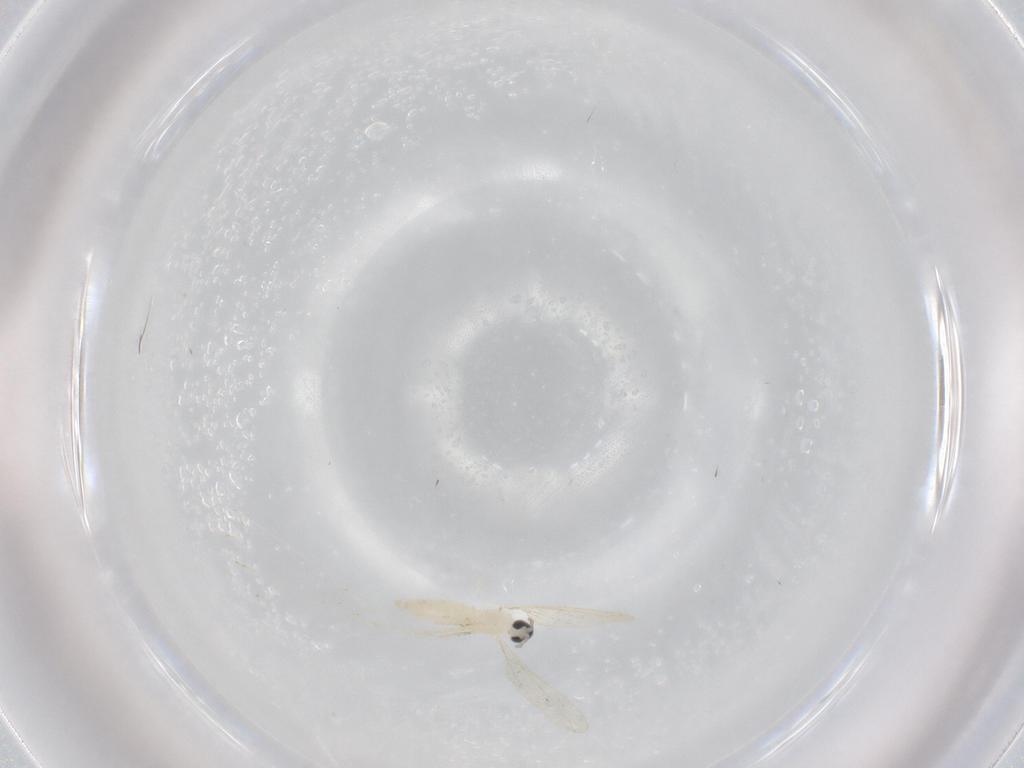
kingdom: Animalia
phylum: Arthropoda
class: Insecta
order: Diptera
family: Cecidomyiidae
